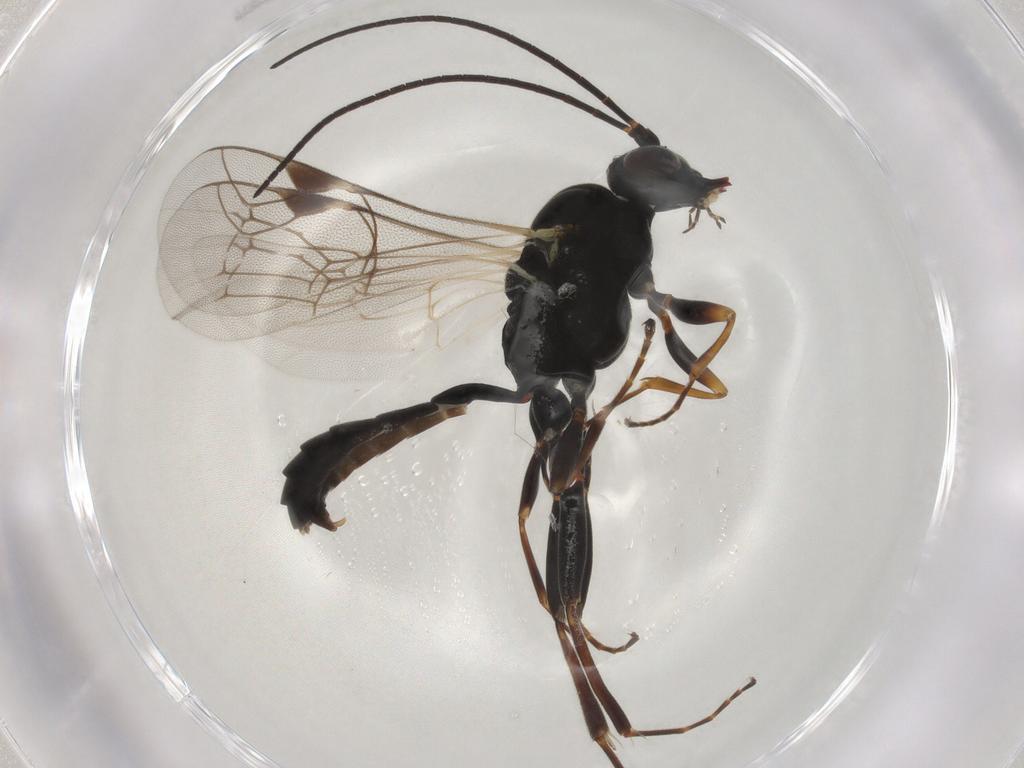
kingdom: Animalia
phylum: Arthropoda
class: Insecta
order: Hymenoptera
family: Ichneumonidae
